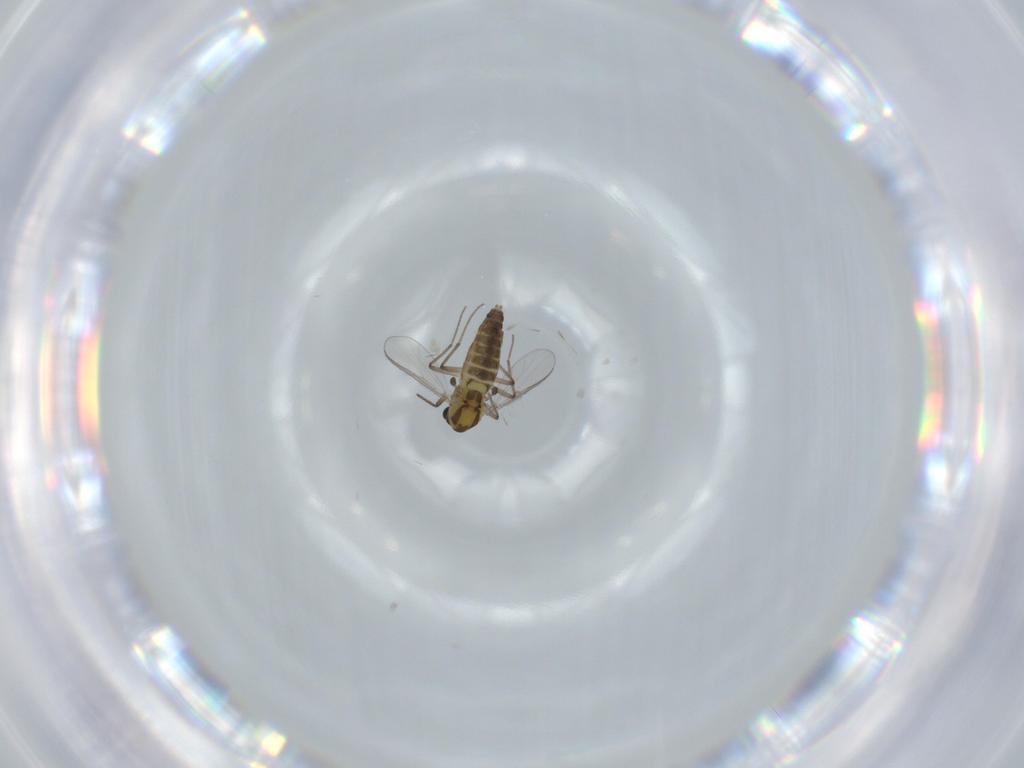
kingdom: Animalia
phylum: Arthropoda
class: Insecta
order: Diptera
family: Chironomidae
